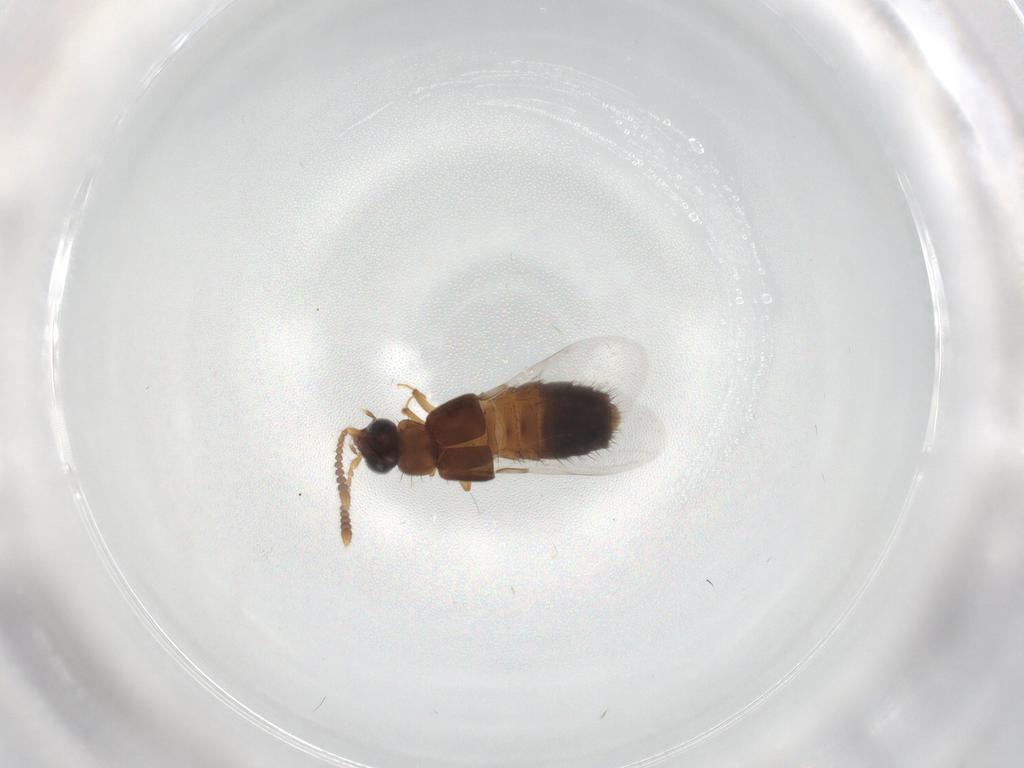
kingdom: Animalia
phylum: Arthropoda
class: Insecta
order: Coleoptera
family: Staphylinidae
